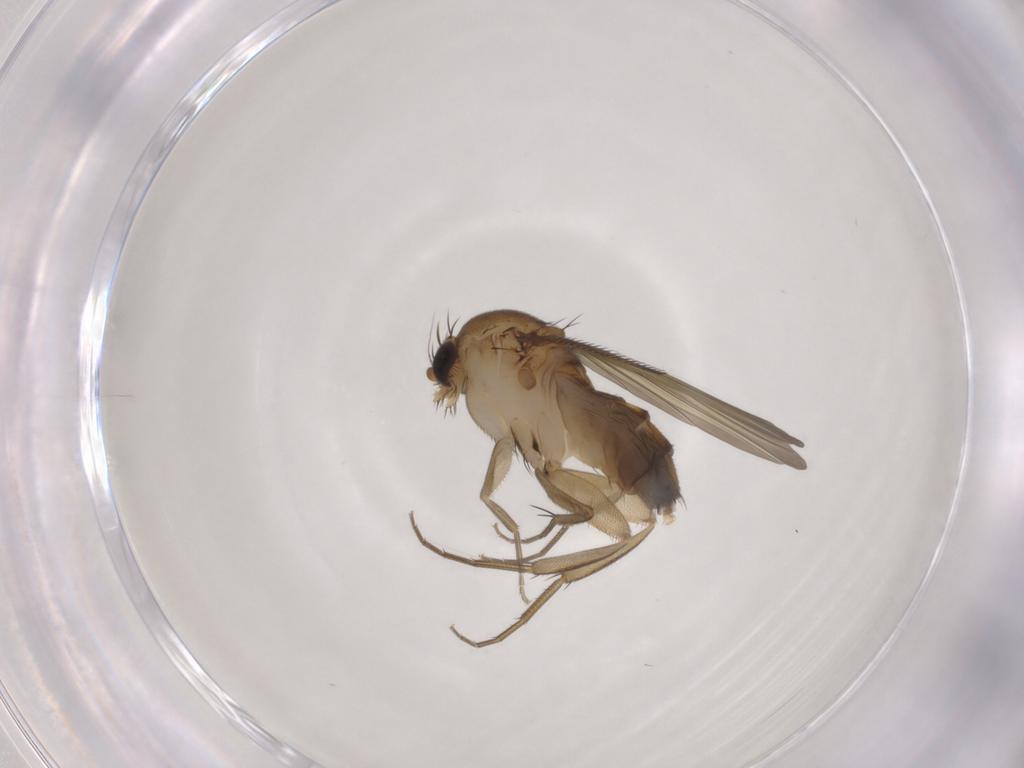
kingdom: Animalia
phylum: Arthropoda
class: Insecta
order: Diptera
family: Phoridae
